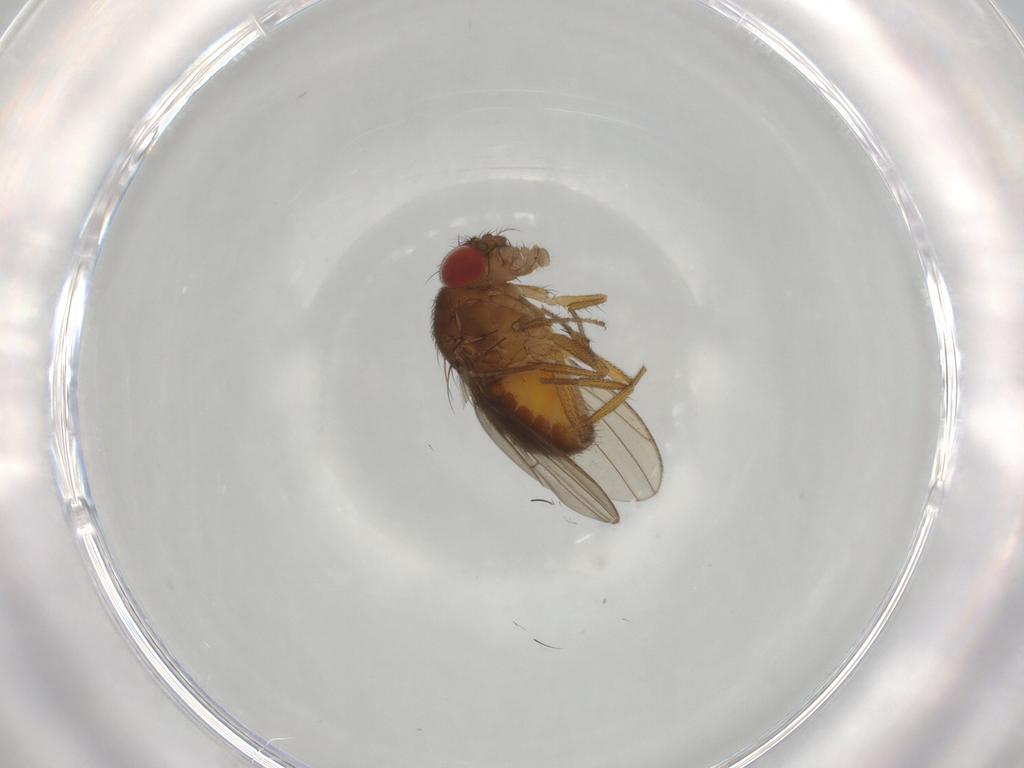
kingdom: Animalia
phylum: Arthropoda
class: Insecta
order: Diptera
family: Drosophilidae
